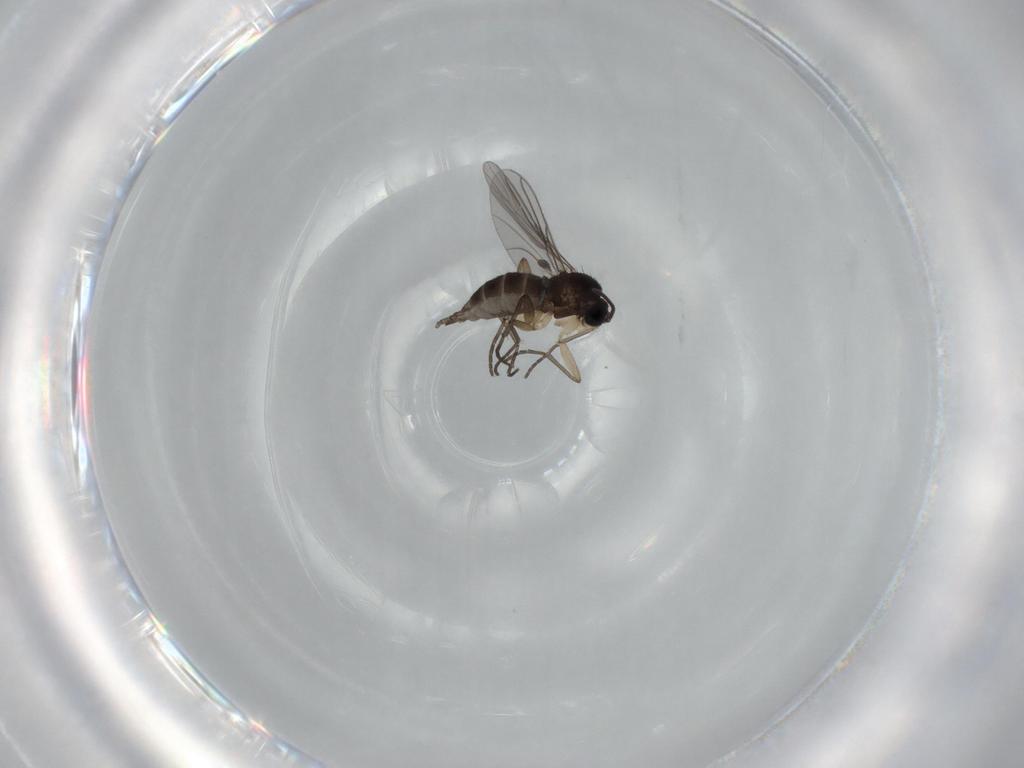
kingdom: Animalia
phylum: Arthropoda
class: Insecta
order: Diptera
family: Sciaridae
